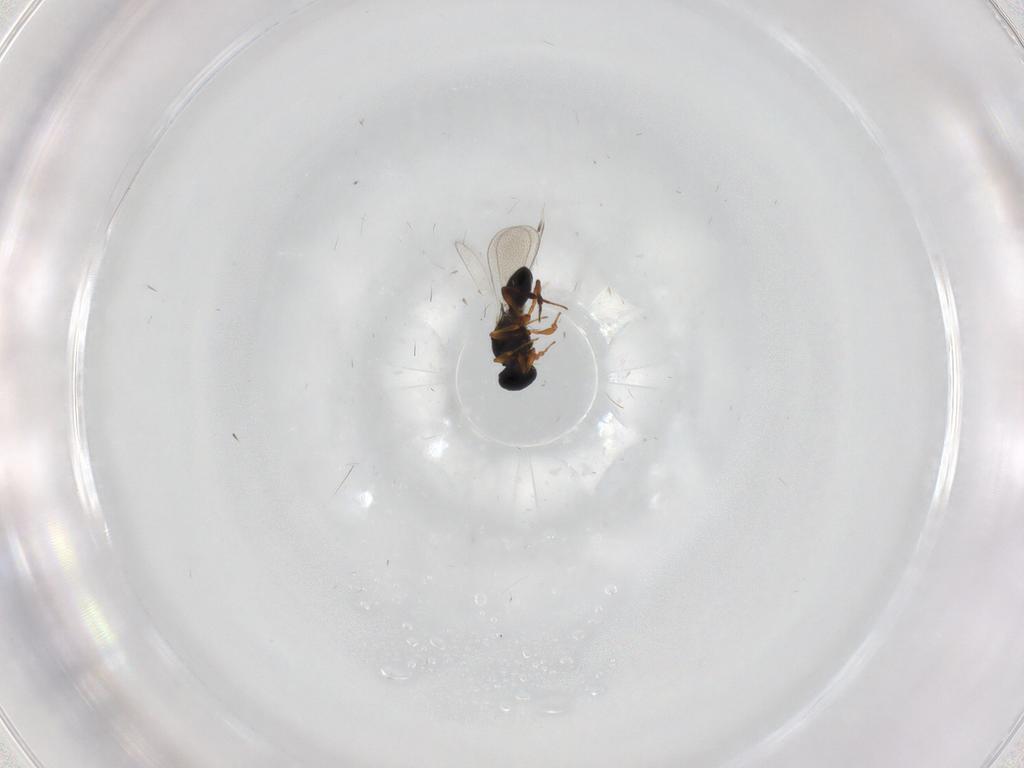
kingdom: Animalia
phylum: Arthropoda
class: Insecta
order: Hymenoptera
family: Platygastridae
